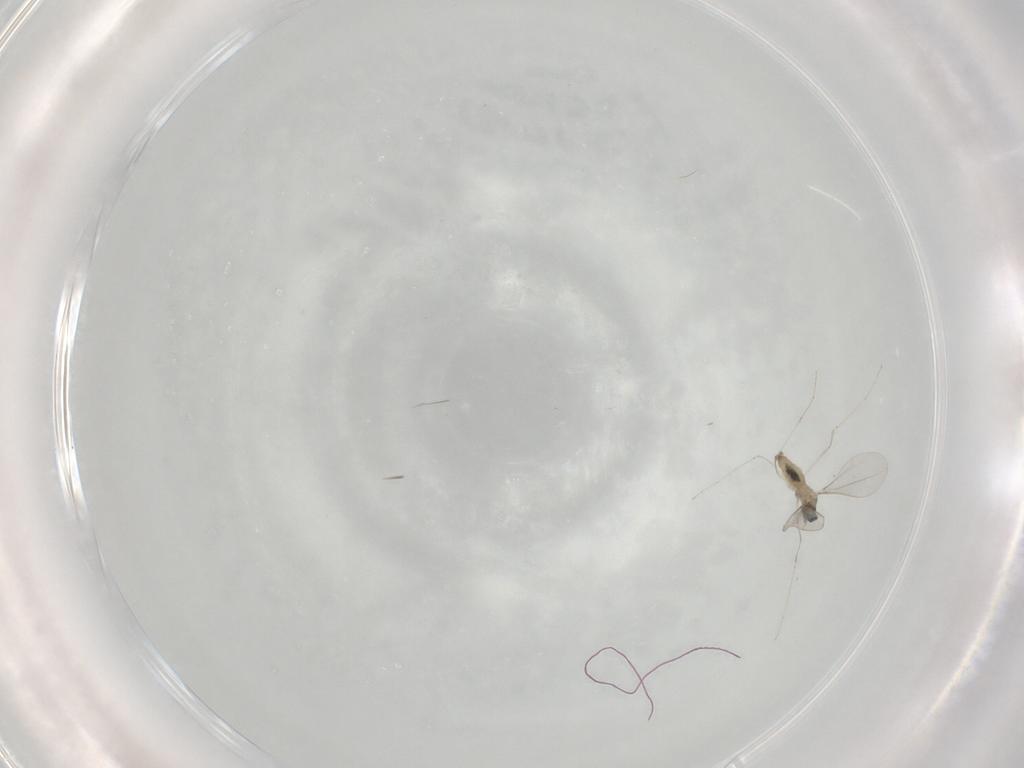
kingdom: Animalia
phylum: Arthropoda
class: Insecta
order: Diptera
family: Cecidomyiidae
